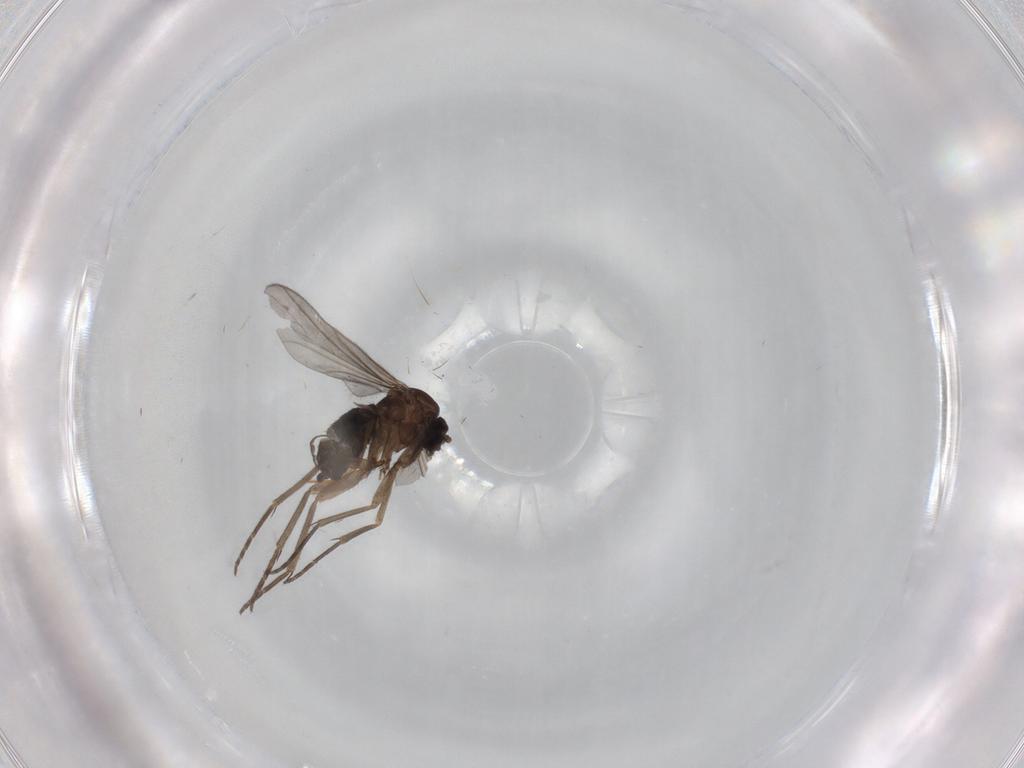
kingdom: Animalia
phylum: Arthropoda
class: Insecta
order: Diptera
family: Sciaridae
